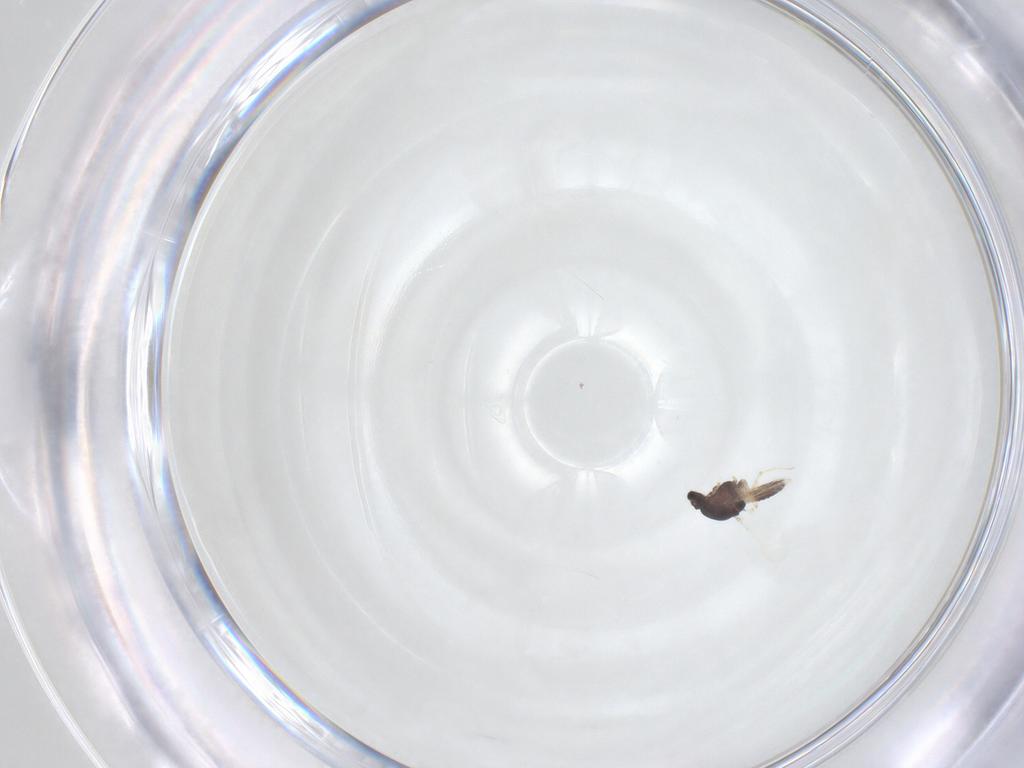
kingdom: Animalia
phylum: Arthropoda
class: Insecta
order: Diptera
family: Chironomidae
